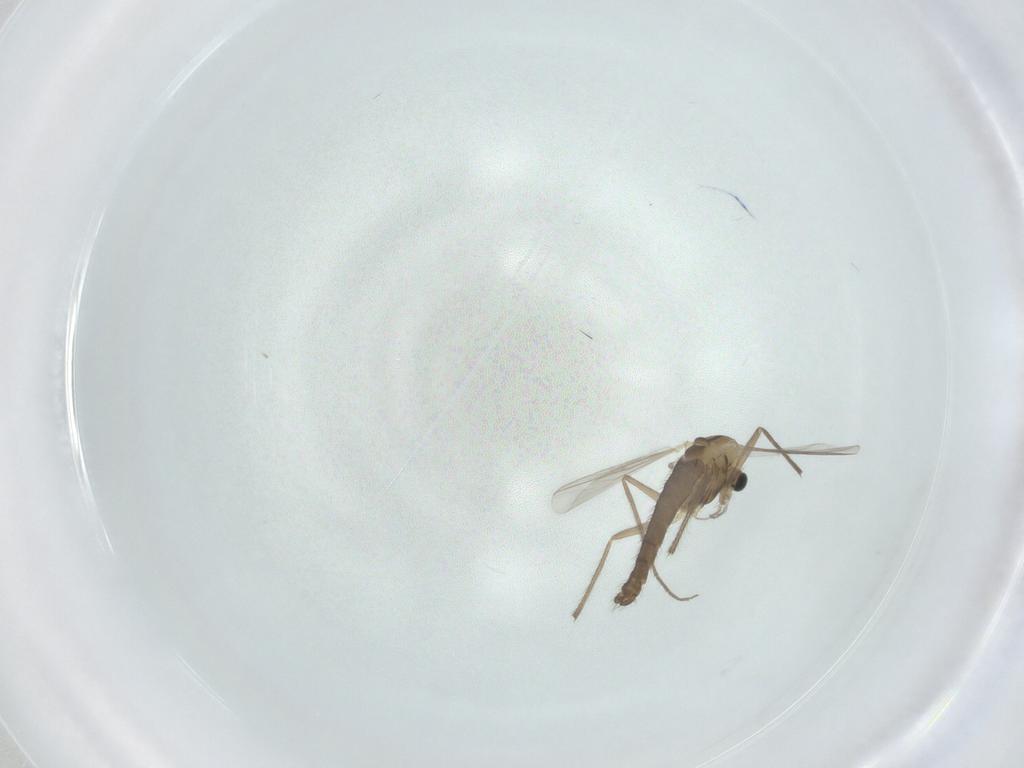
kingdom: Animalia
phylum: Arthropoda
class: Insecta
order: Diptera
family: Chironomidae
